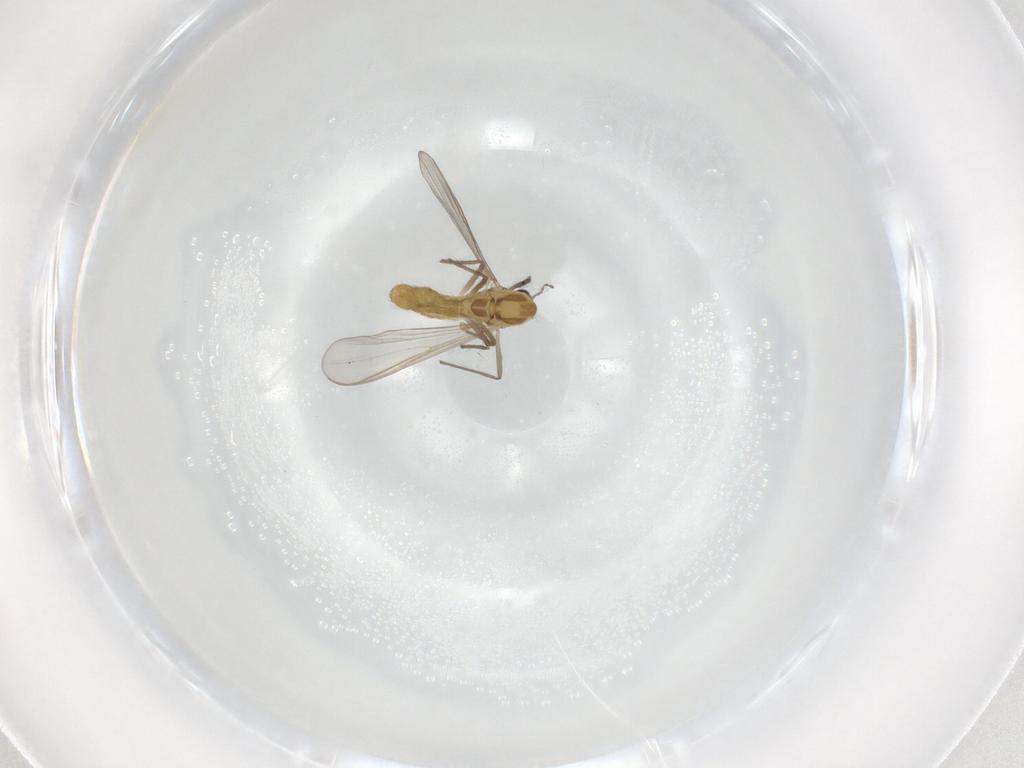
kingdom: Animalia
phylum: Arthropoda
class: Insecta
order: Diptera
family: Chironomidae
